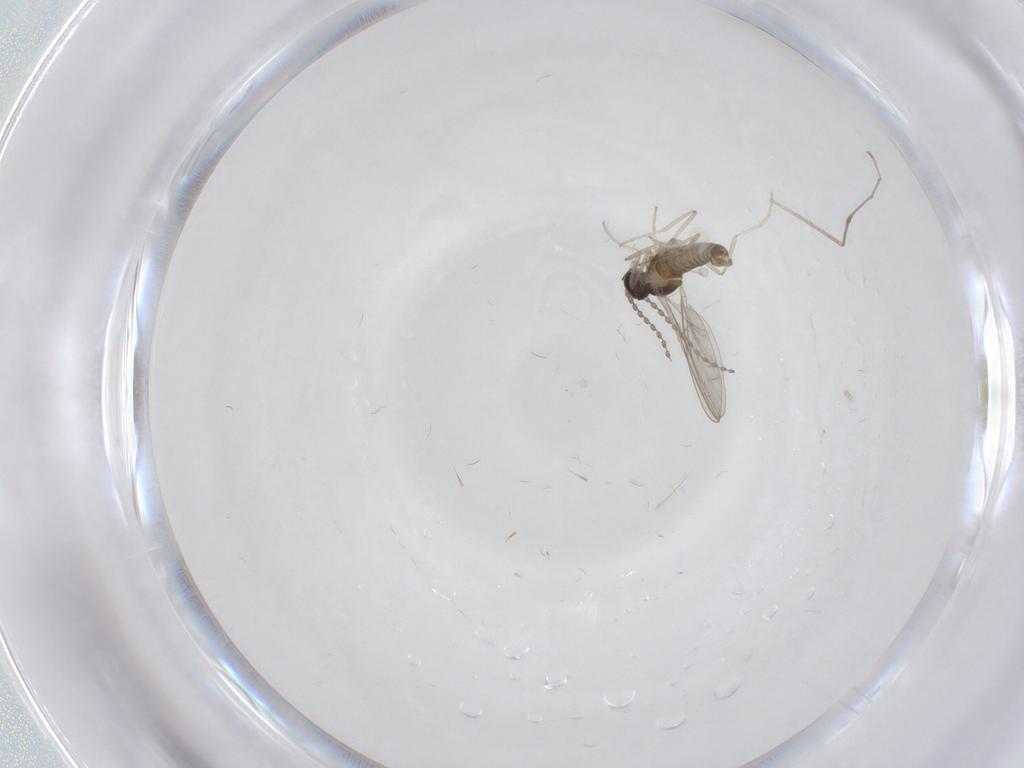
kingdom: Animalia
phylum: Arthropoda
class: Insecta
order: Diptera
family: Cecidomyiidae
